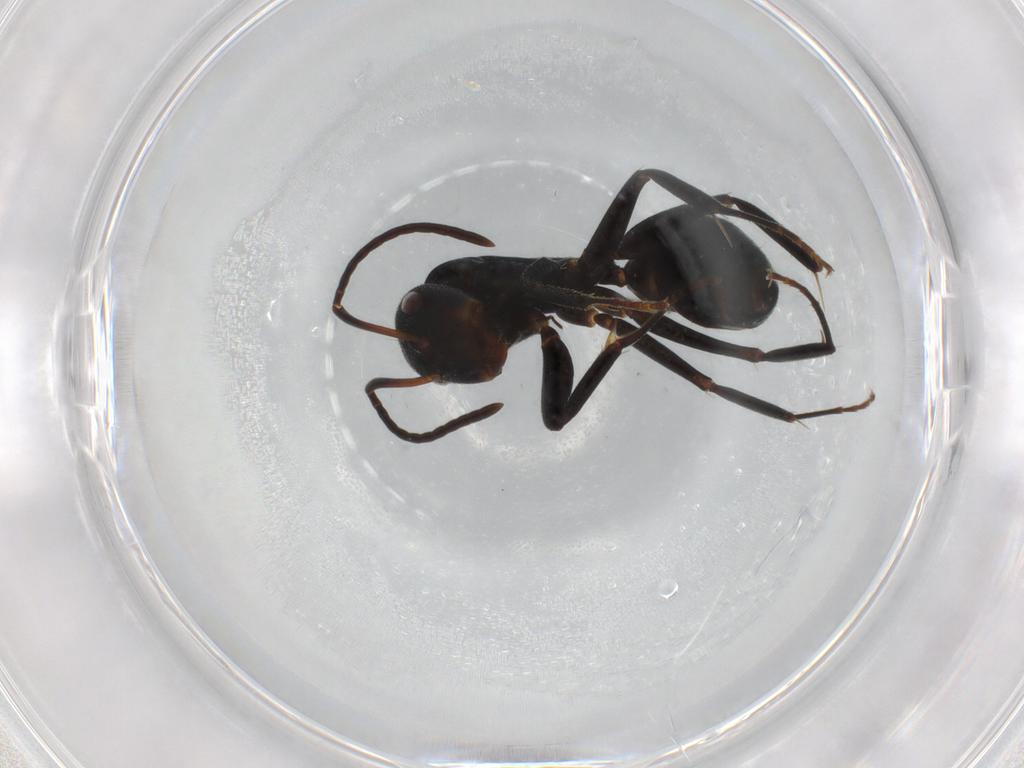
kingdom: Animalia
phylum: Arthropoda
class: Insecta
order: Hymenoptera
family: Formicidae
